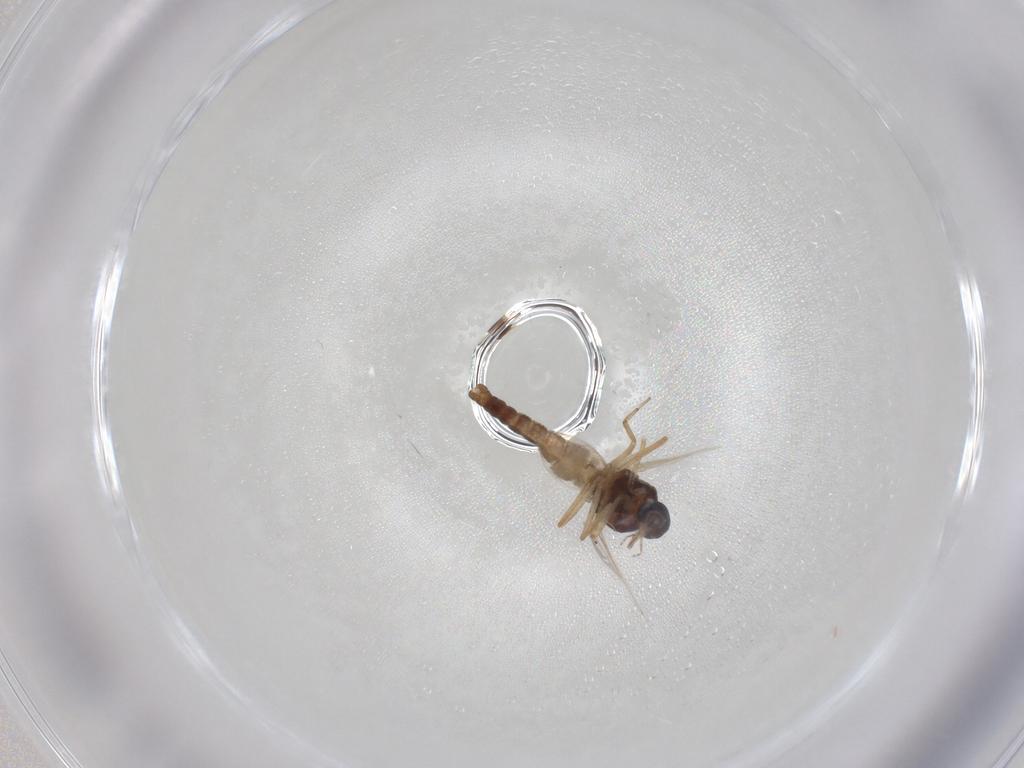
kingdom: Animalia
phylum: Arthropoda
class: Insecta
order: Diptera
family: Ceratopogonidae
